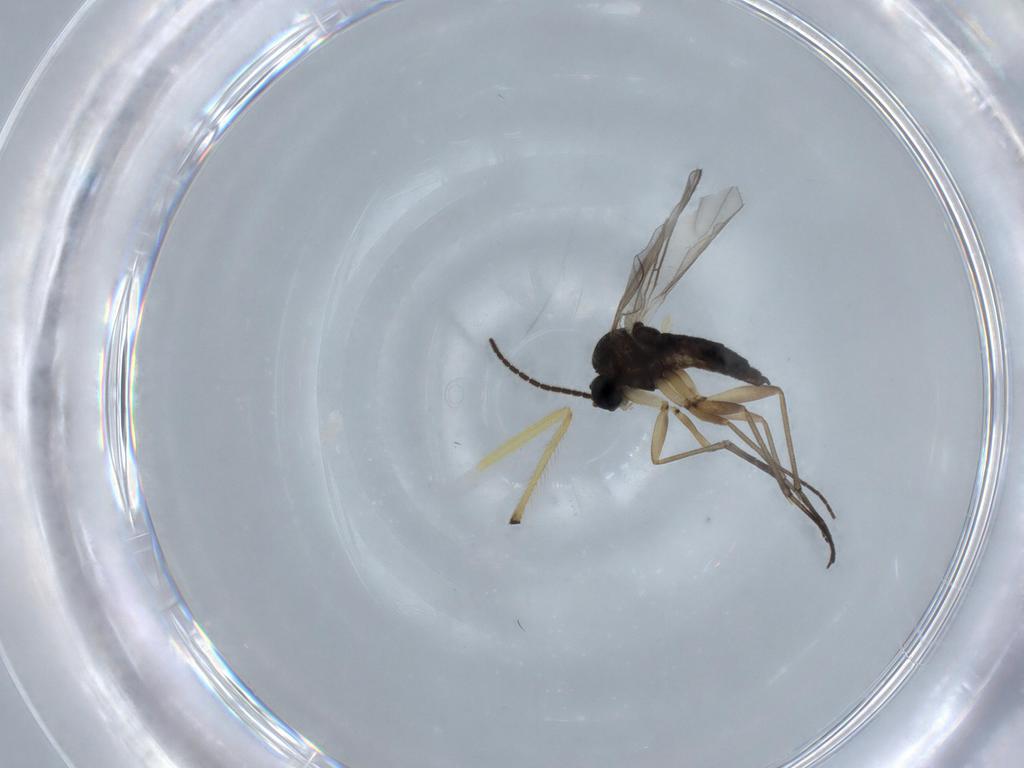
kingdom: Animalia
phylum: Arthropoda
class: Insecta
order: Diptera
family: Sciaridae
